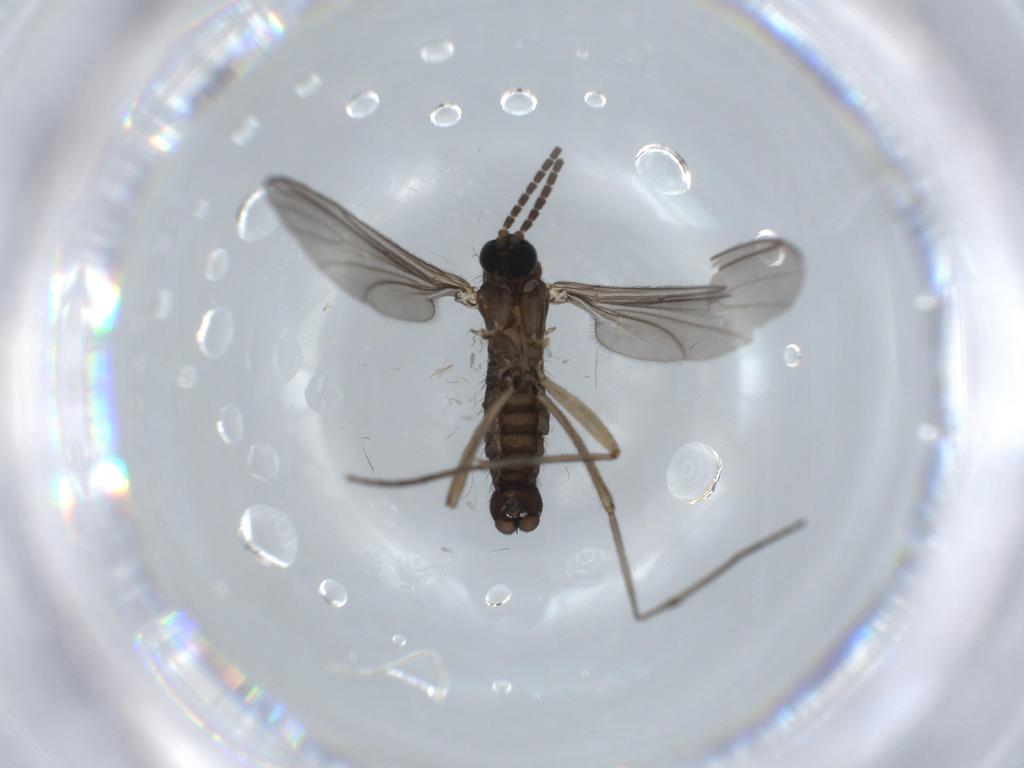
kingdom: Animalia
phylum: Arthropoda
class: Insecta
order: Diptera
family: Sciaridae
